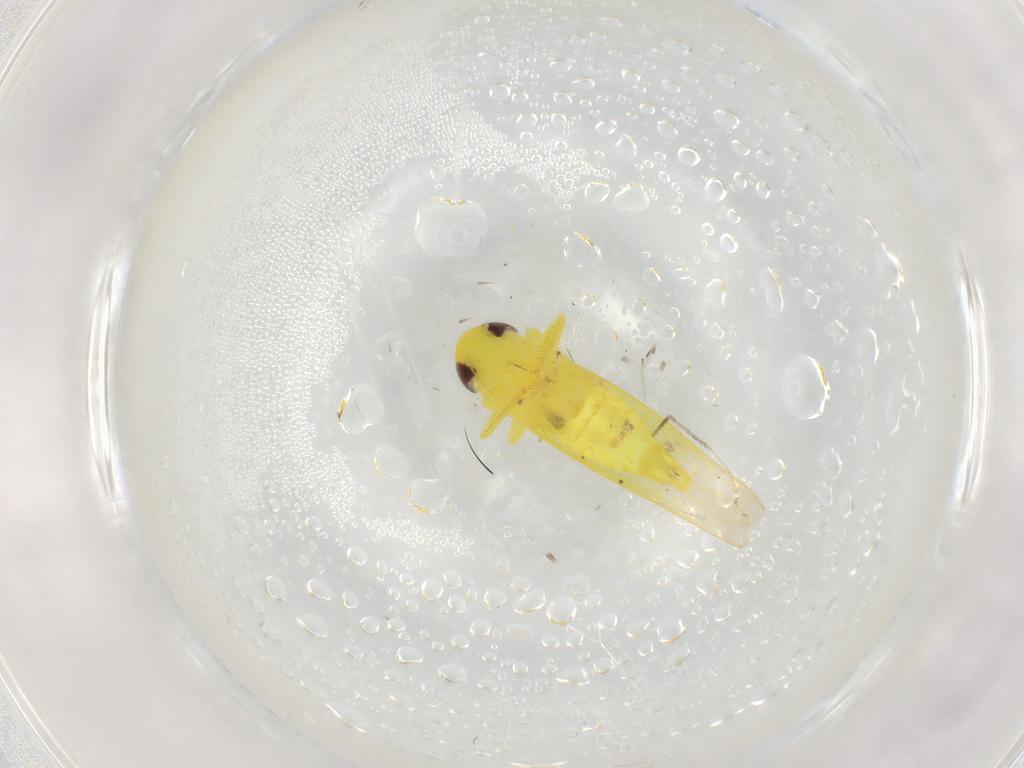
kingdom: Animalia
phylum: Arthropoda
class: Insecta
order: Hemiptera
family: Cicadellidae
